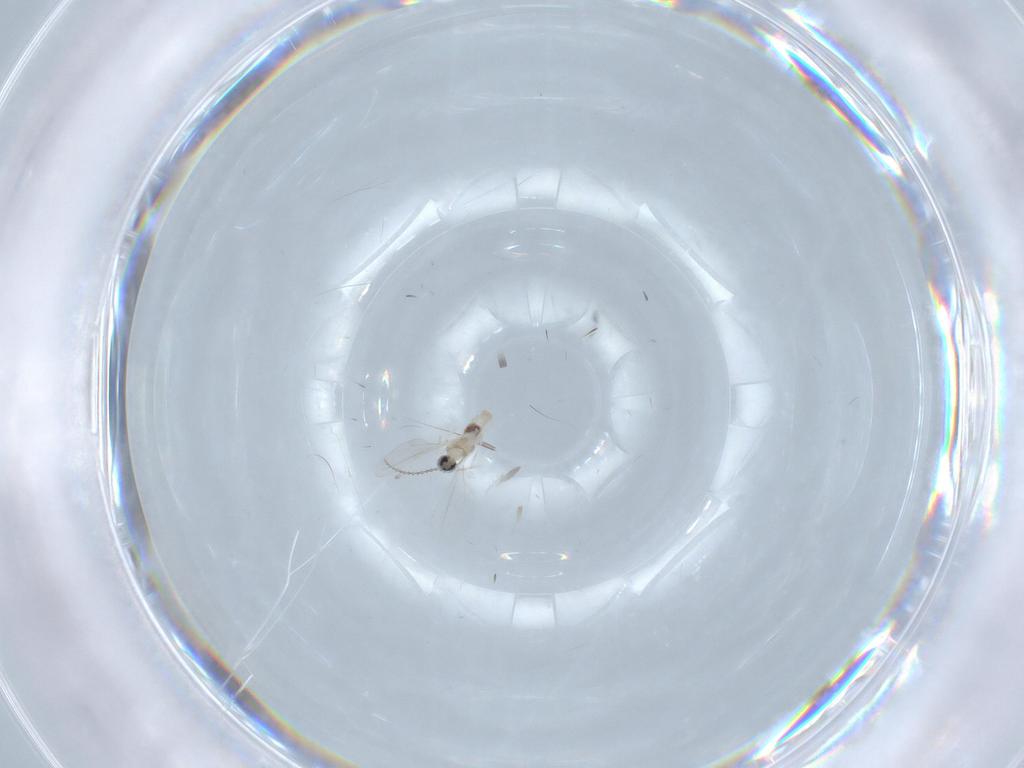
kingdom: Animalia
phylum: Arthropoda
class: Insecta
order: Diptera
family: Cecidomyiidae
